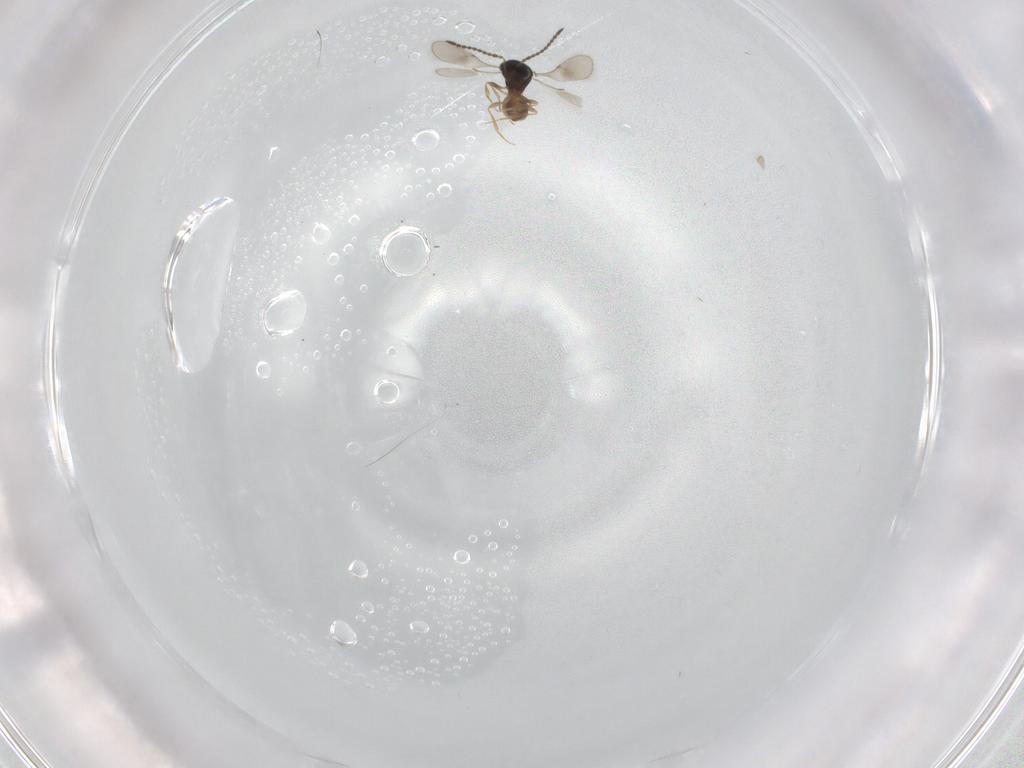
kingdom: Animalia
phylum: Arthropoda
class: Insecta
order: Hymenoptera
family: Scelionidae
